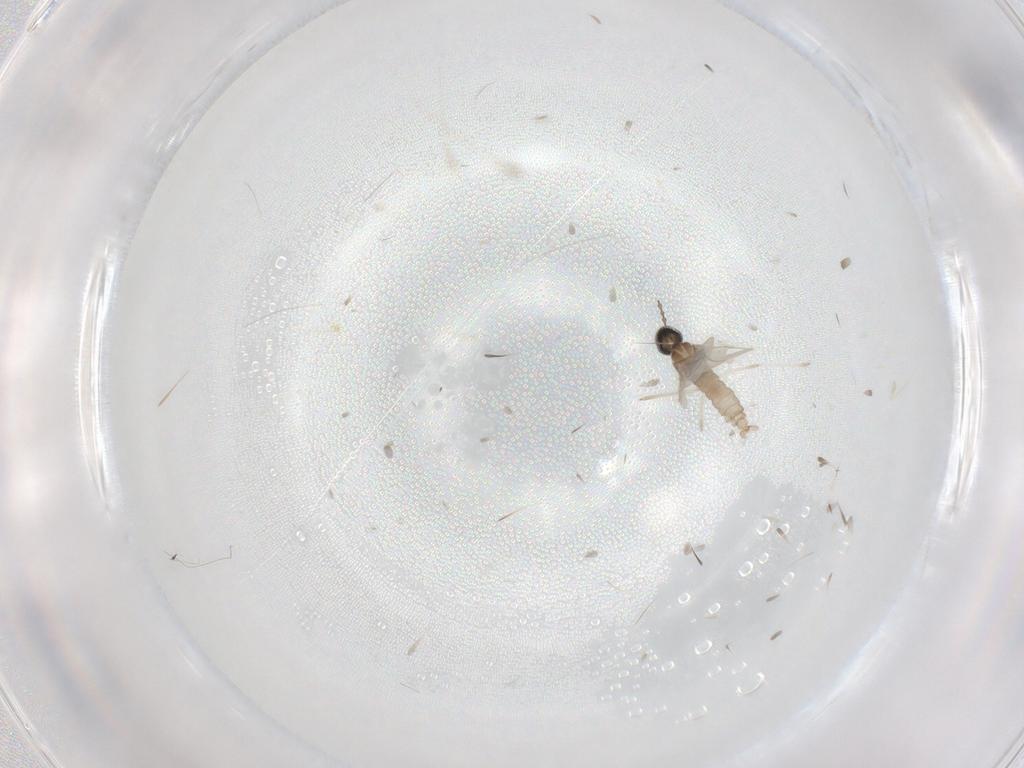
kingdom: Animalia
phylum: Arthropoda
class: Insecta
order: Diptera
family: Cecidomyiidae
